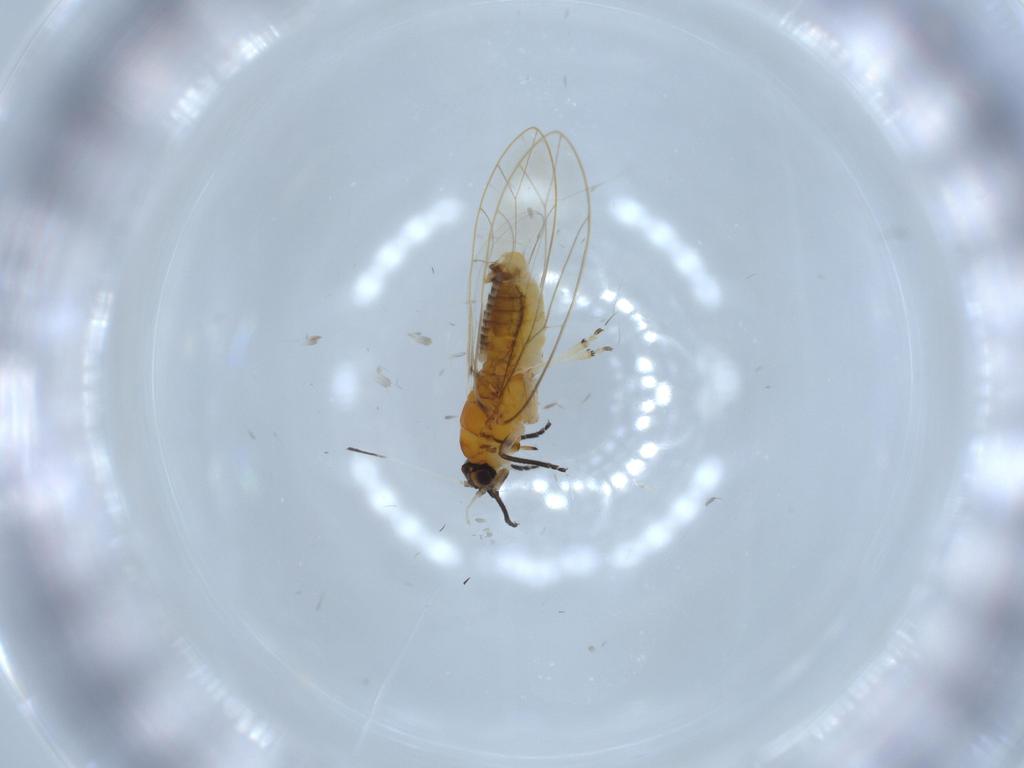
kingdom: Animalia
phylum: Arthropoda
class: Insecta
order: Hemiptera
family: Triozidae
